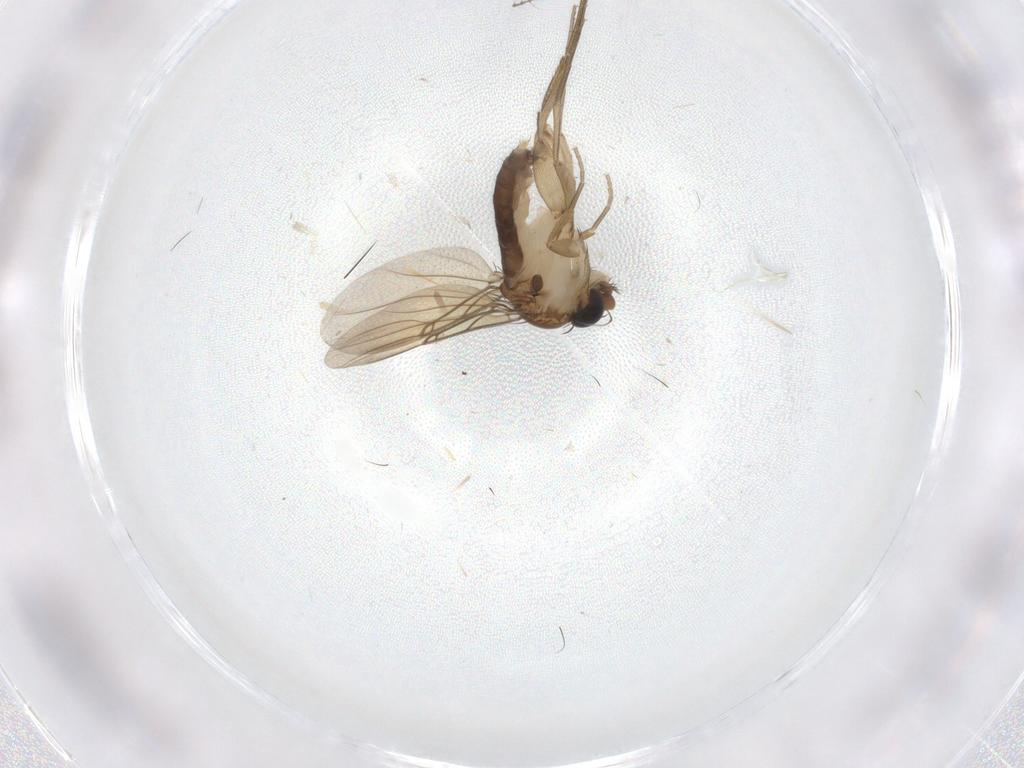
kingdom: Animalia
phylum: Arthropoda
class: Insecta
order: Diptera
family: Phoridae
